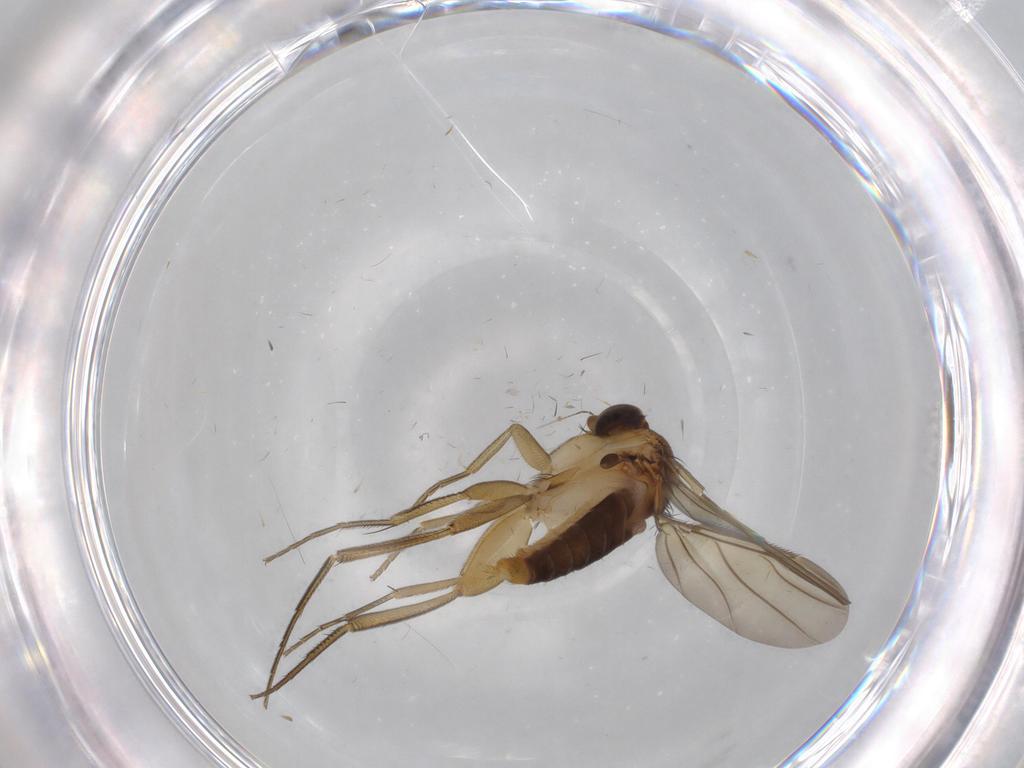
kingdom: Animalia
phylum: Arthropoda
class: Insecta
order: Diptera
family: Phoridae
